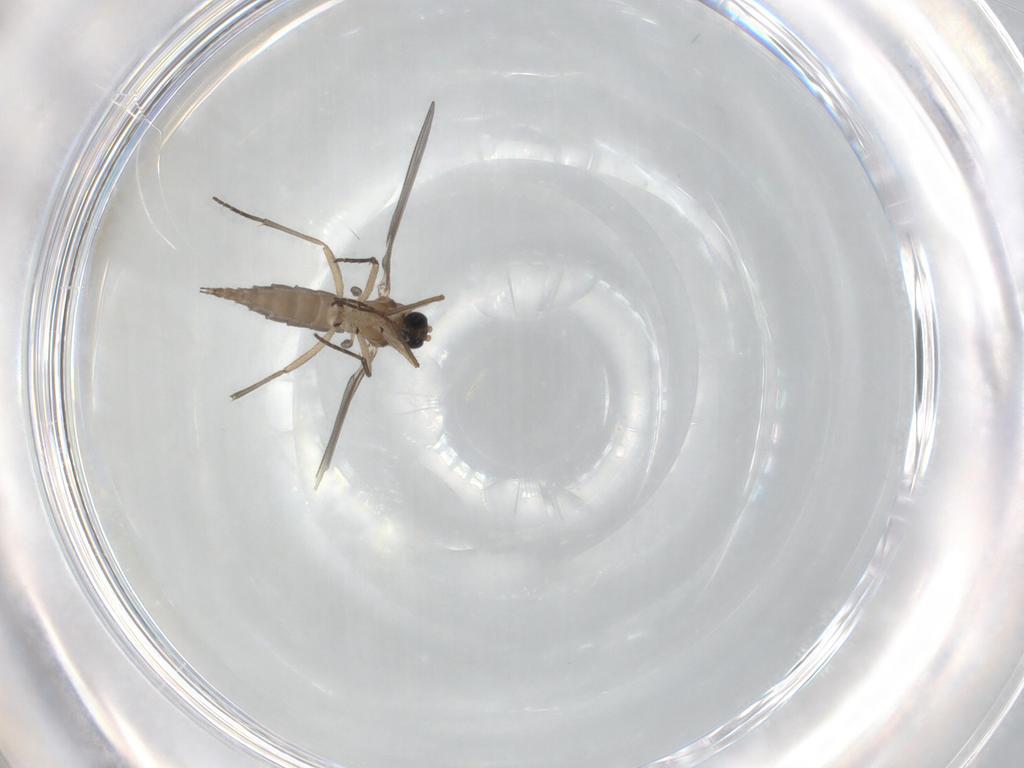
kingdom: Animalia
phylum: Arthropoda
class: Insecta
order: Diptera
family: Sciaridae
